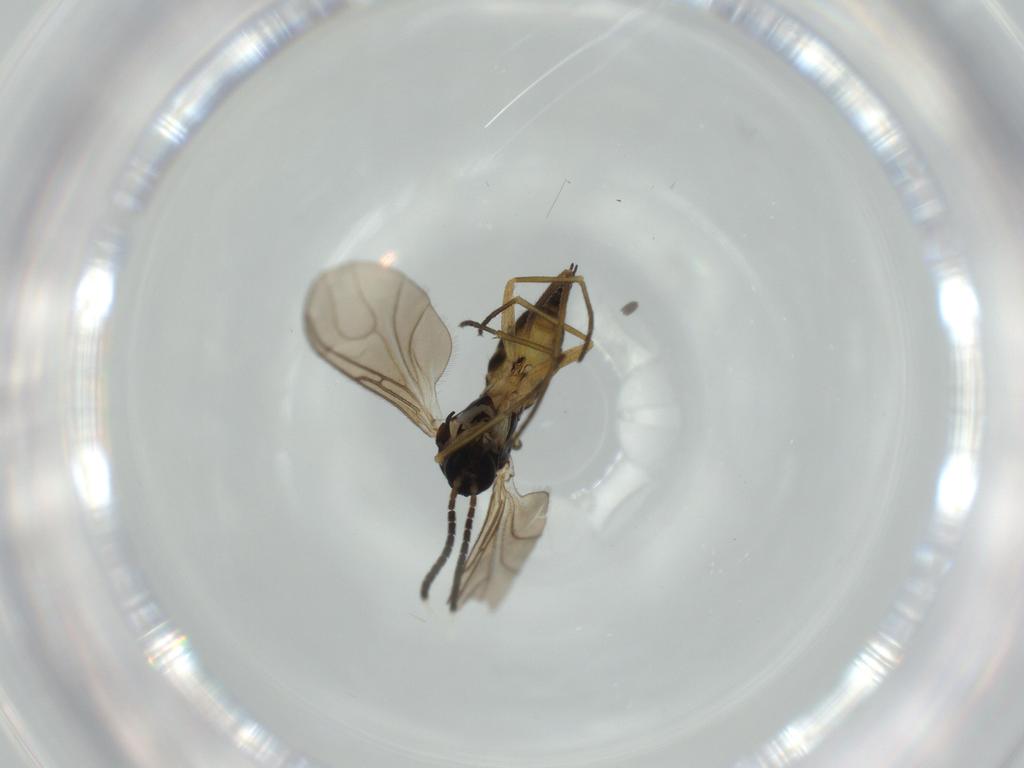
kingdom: Animalia
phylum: Arthropoda
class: Insecta
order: Diptera
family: Sciaridae
